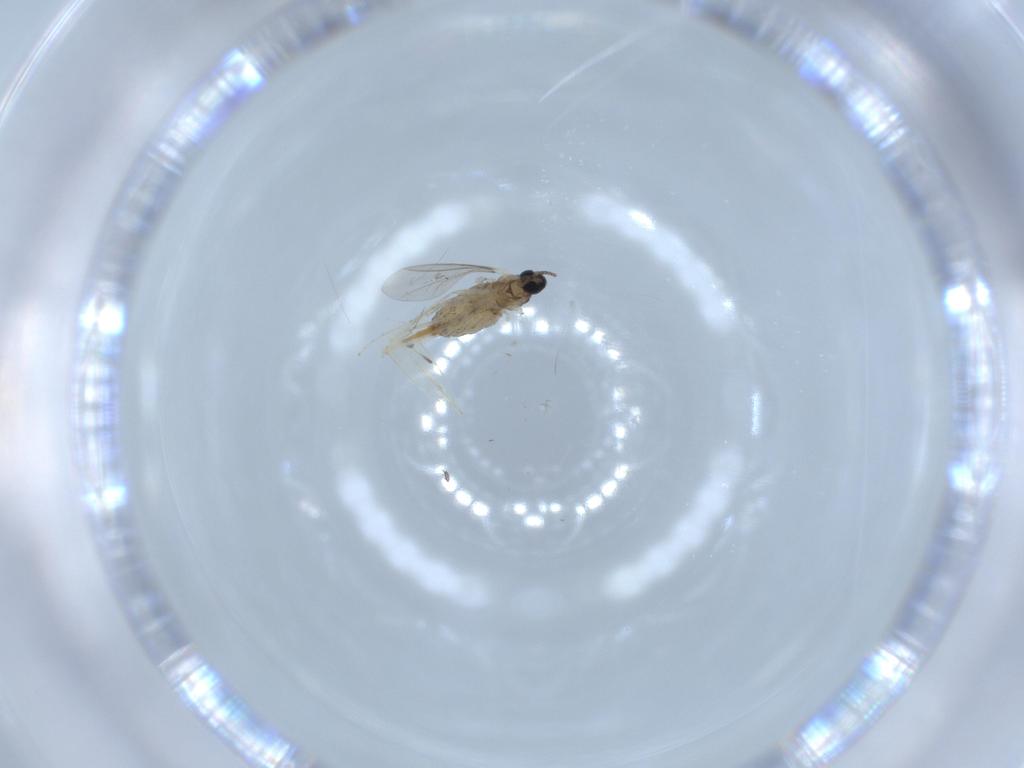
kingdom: Animalia
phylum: Arthropoda
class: Insecta
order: Diptera
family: Chironomidae
